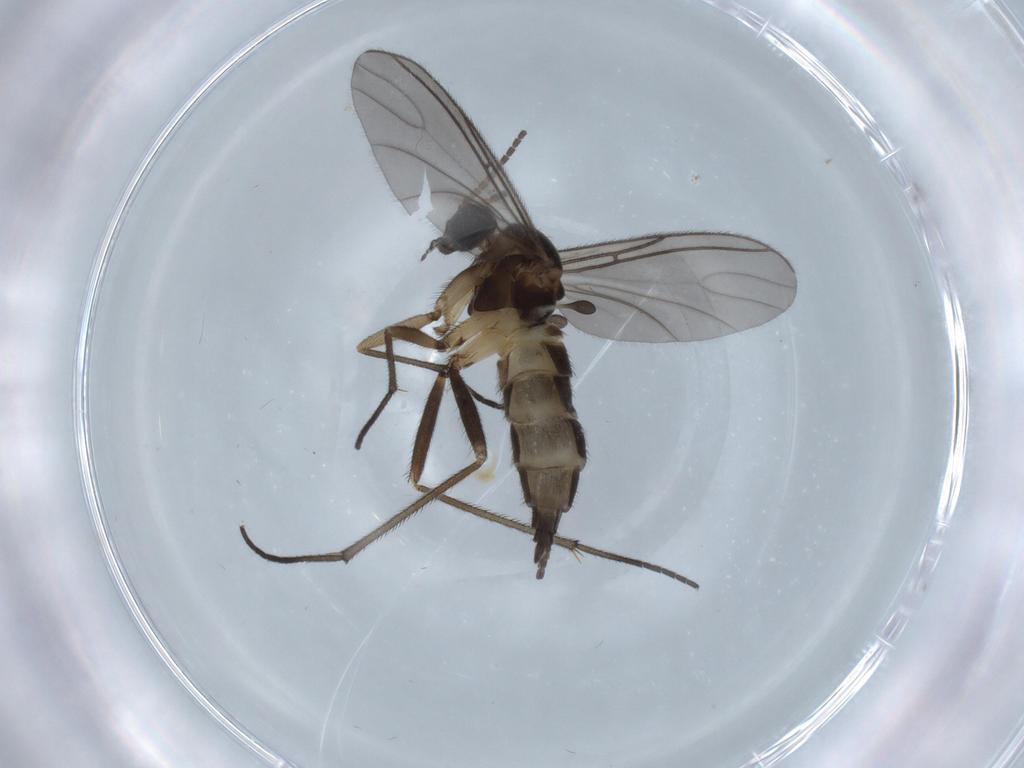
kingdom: Animalia
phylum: Arthropoda
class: Insecta
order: Diptera
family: Sciaridae
